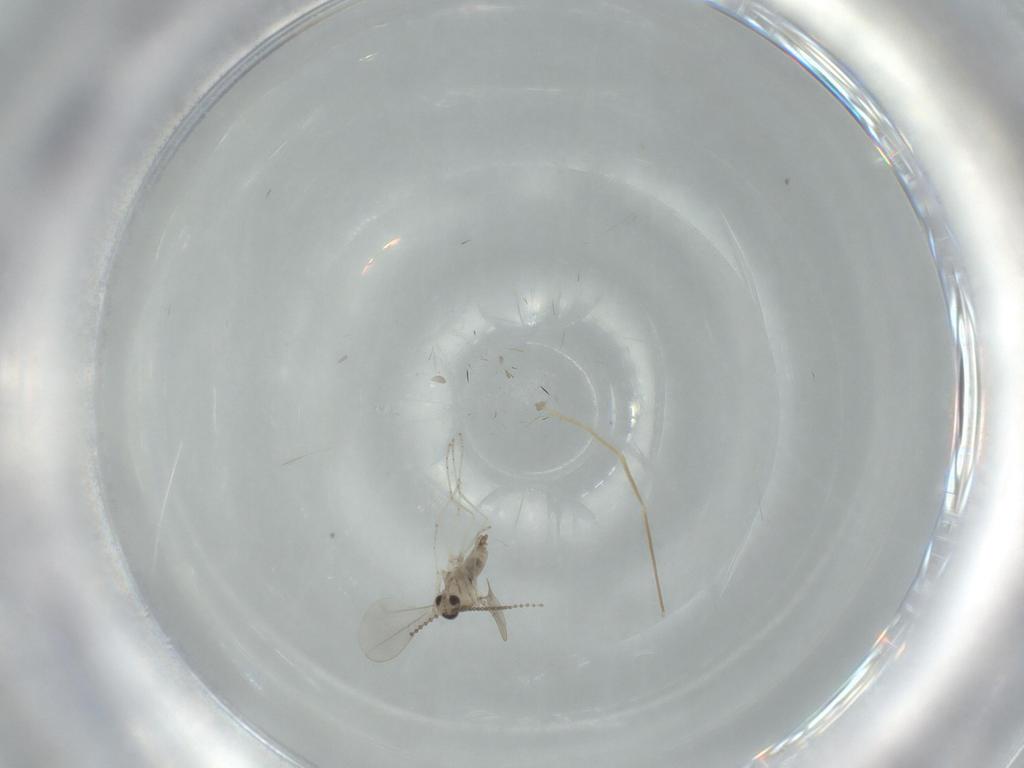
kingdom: Animalia
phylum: Arthropoda
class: Insecta
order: Diptera
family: Cecidomyiidae
